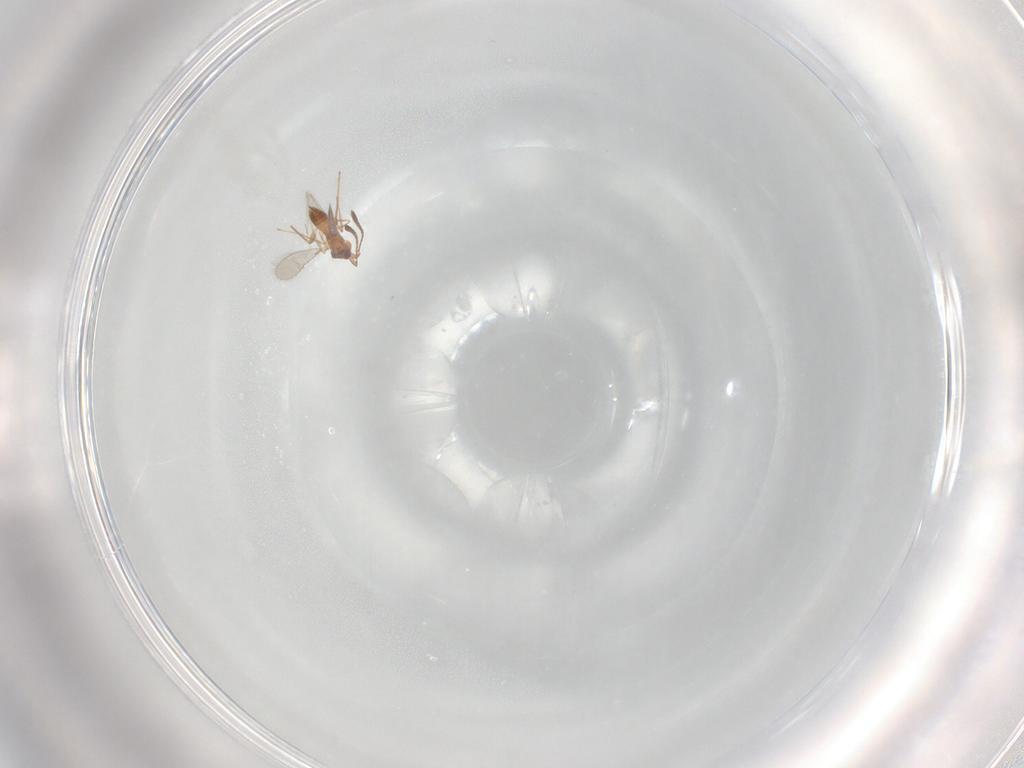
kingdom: Animalia
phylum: Arthropoda
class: Insecta
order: Hymenoptera
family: Mymaridae
